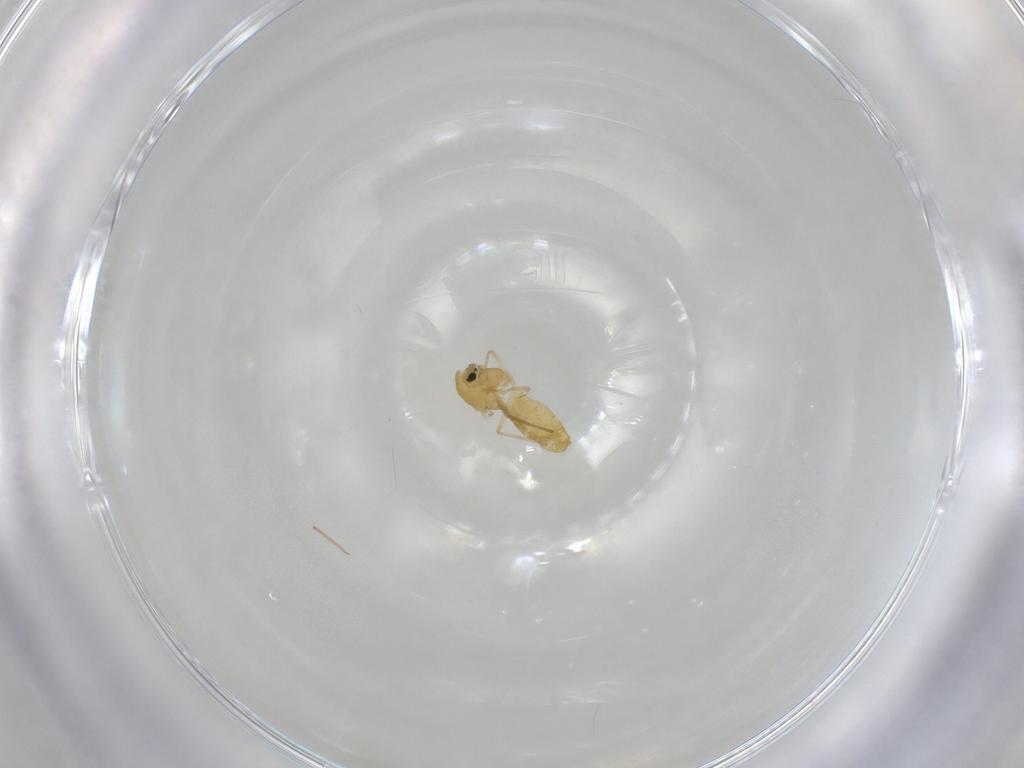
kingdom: Animalia
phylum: Arthropoda
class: Insecta
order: Diptera
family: Chironomidae
